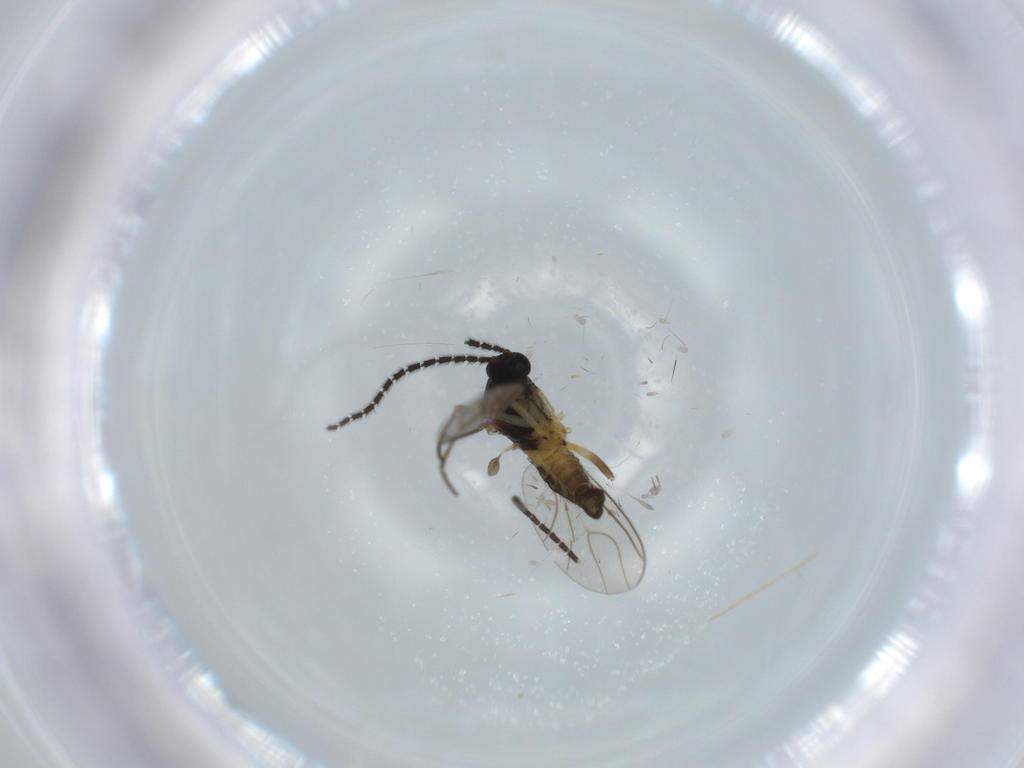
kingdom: Animalia
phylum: Arthropoda
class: Insecta
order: Diptera
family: Sciaridae
